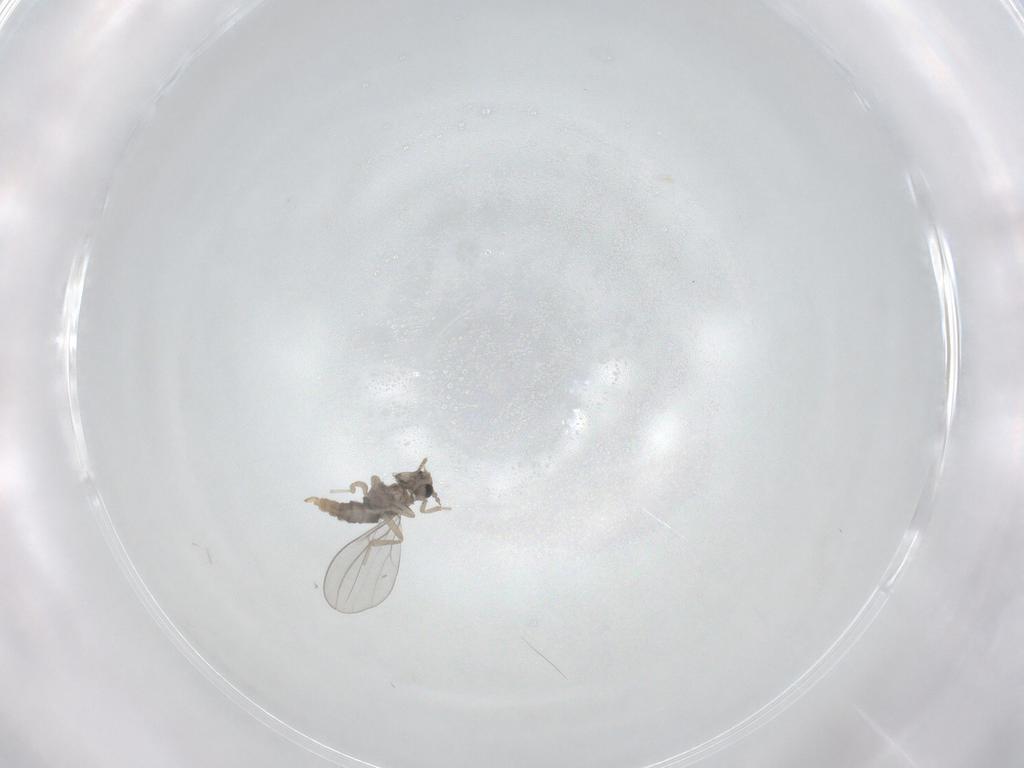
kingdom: Animalia
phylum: Arthropoda
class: Insecta
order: Diptera
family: Cecidomyiidae
